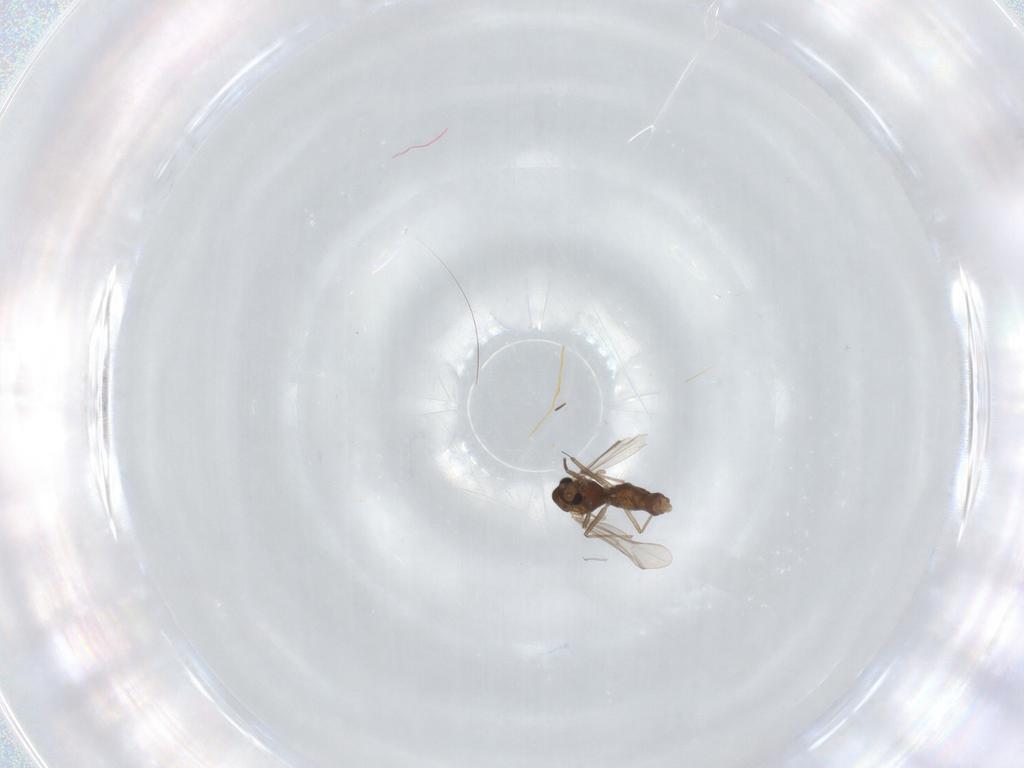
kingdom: Animalia
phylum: Arthropoda
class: Insecta
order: Diptera
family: Chironomidae
